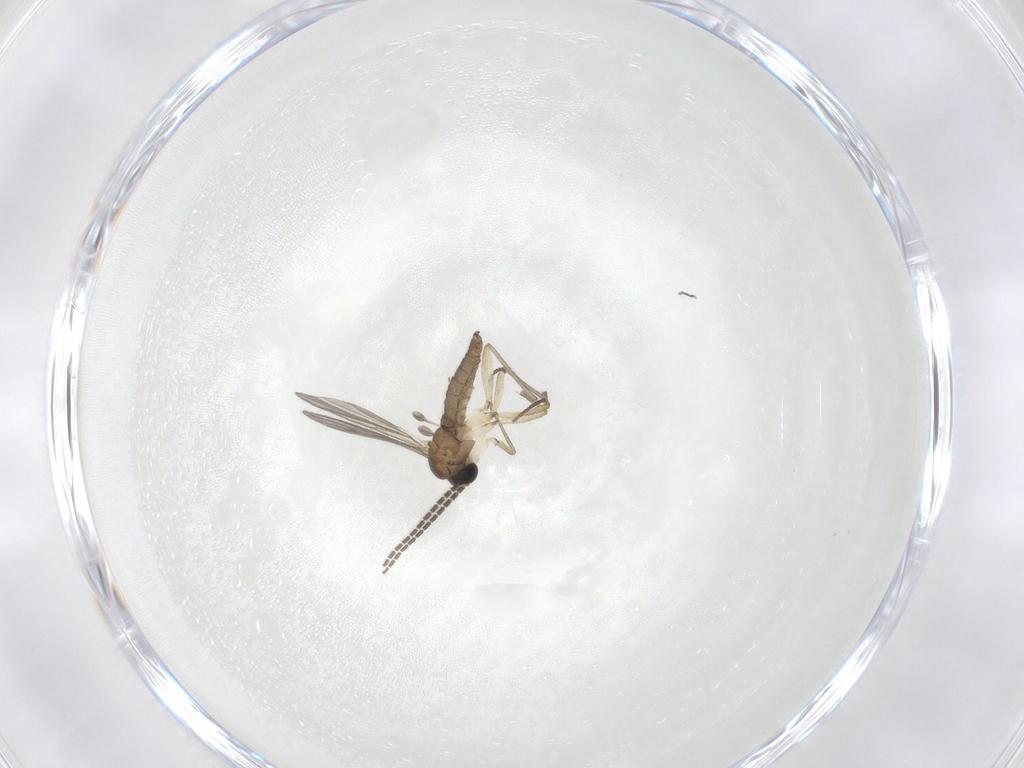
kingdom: Animalia
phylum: Arthropoda
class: Insecta
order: Diptera
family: Sciaridae
